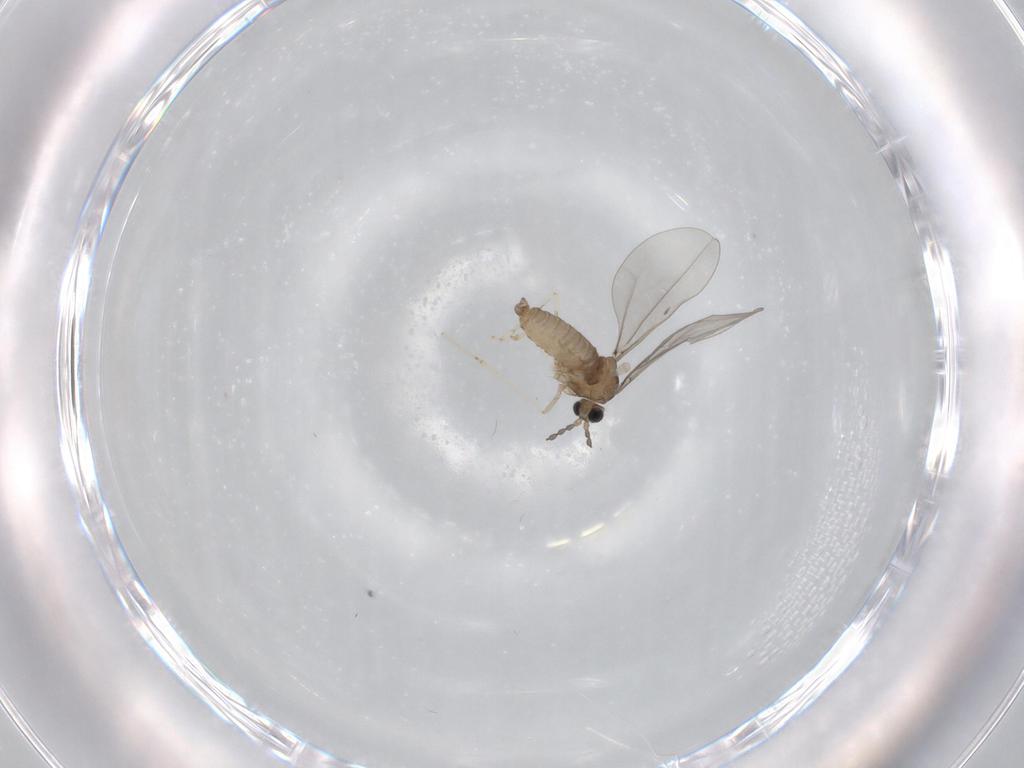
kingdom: Animalia
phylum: Arthropoda
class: Insecta
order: Diptera
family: Cecidomyiidae
